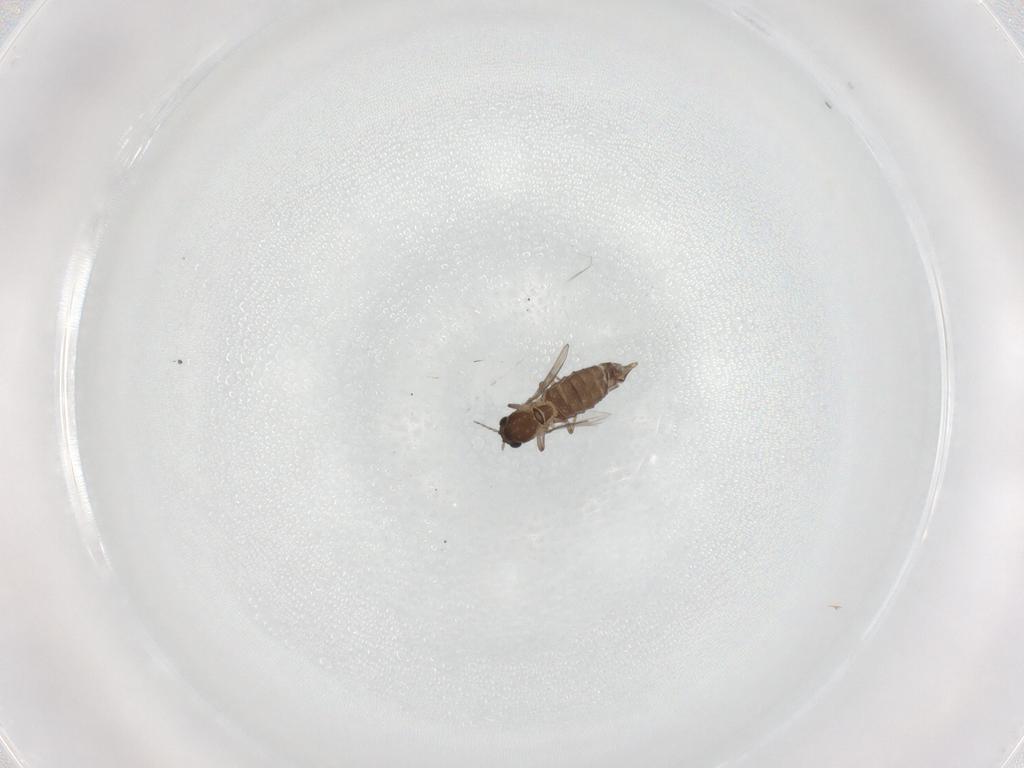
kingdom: Animalia
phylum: Arthropoda
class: Insecta
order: Diptera
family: Chironomidae
